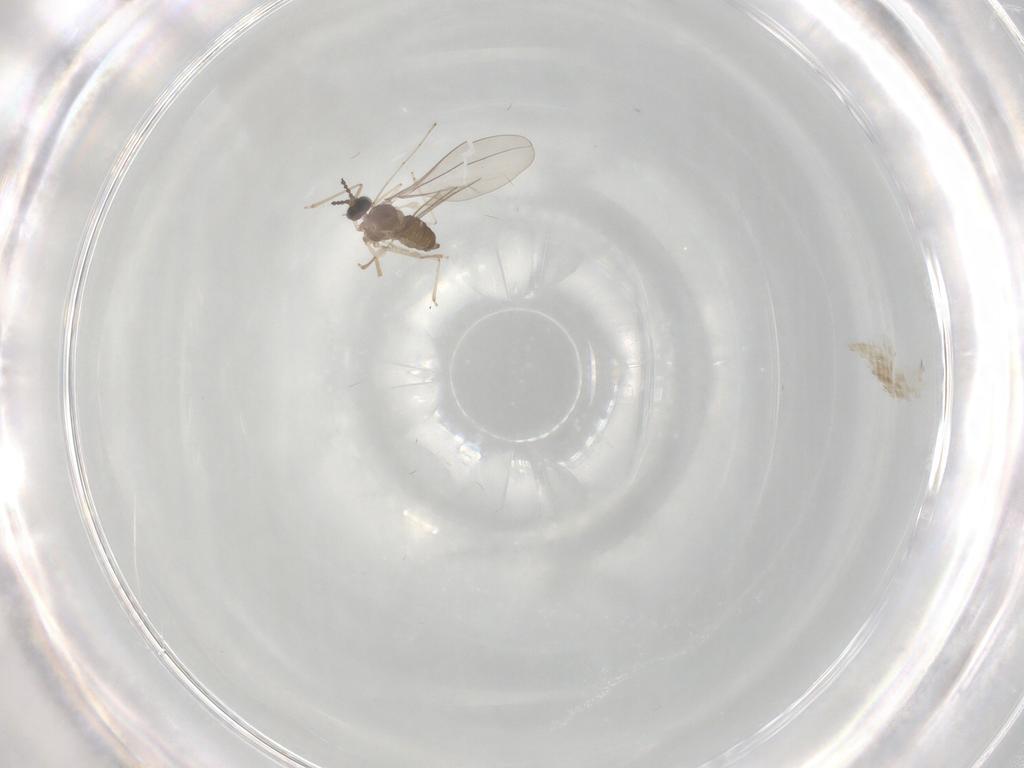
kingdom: Animalia
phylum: Arthropoda
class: Insecta
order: Diptera
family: Cecidomyiidae
